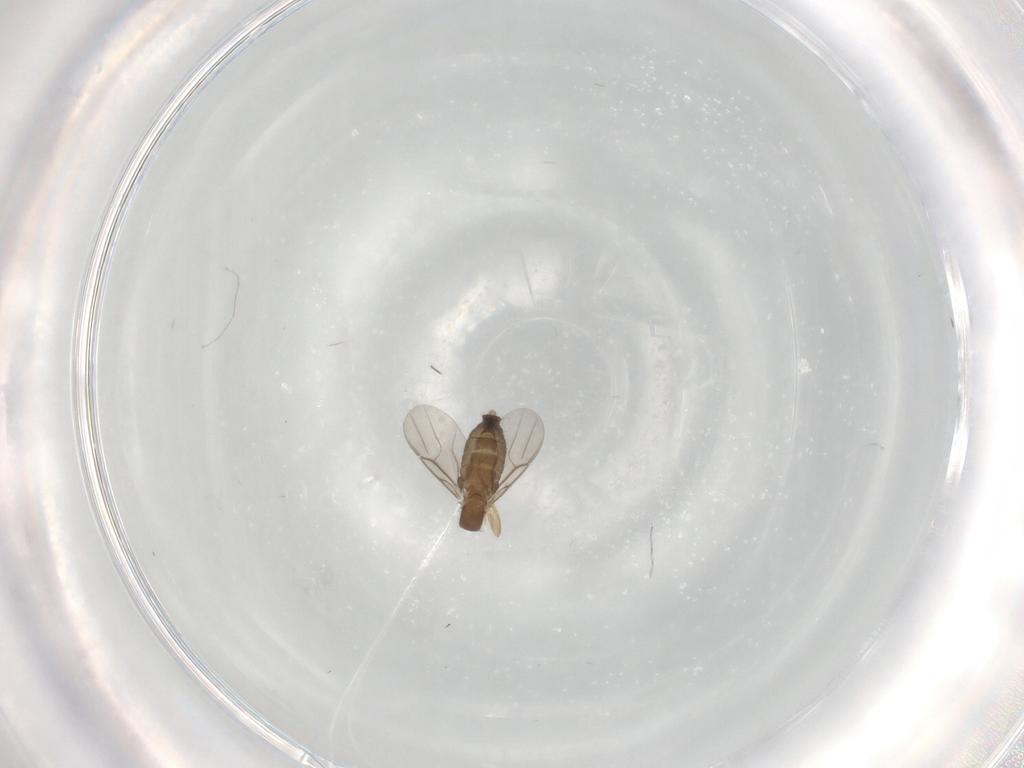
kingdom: Animalia
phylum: Arthropoda
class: Insecta
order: Diptera
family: Phoridae
